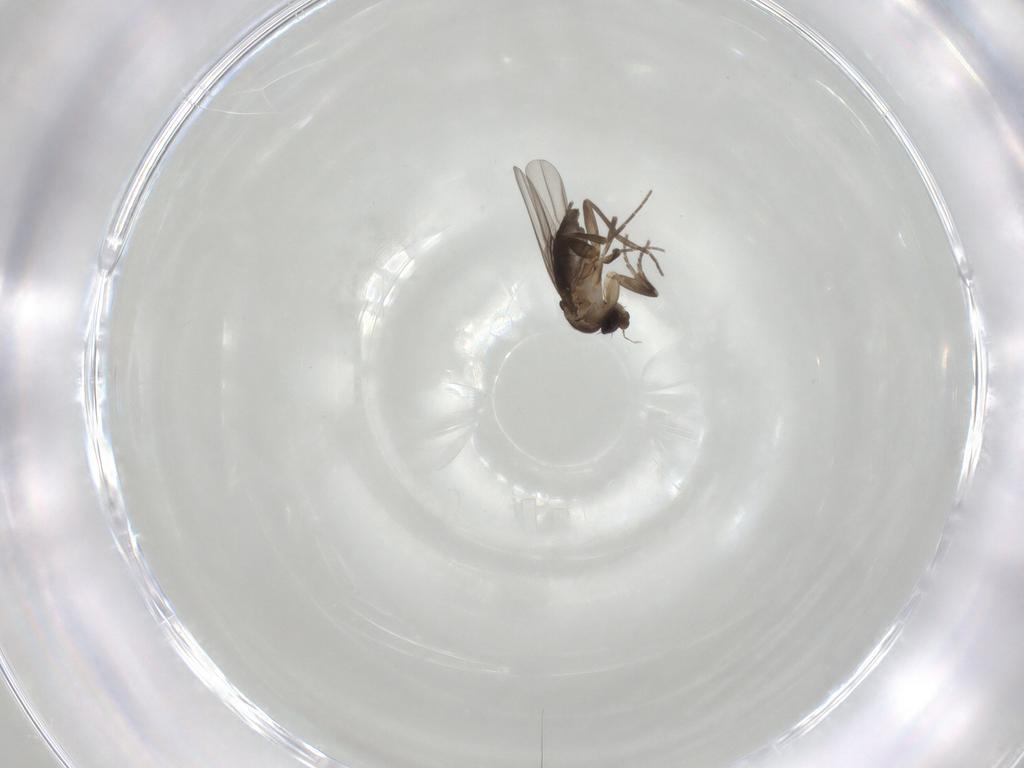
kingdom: Animalia
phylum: Arthropoda
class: Insecta
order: Diptera
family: Phoridae
